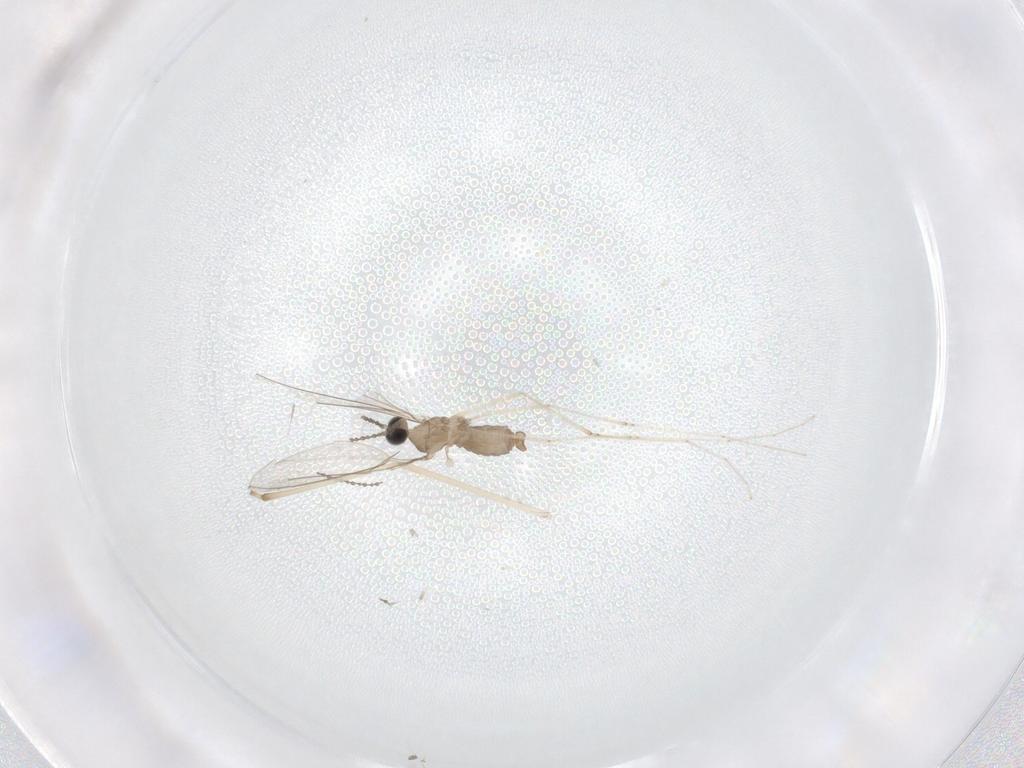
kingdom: Animalia
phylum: Arthropoda
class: Insecta
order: Diptera
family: Cecidomyiidae
